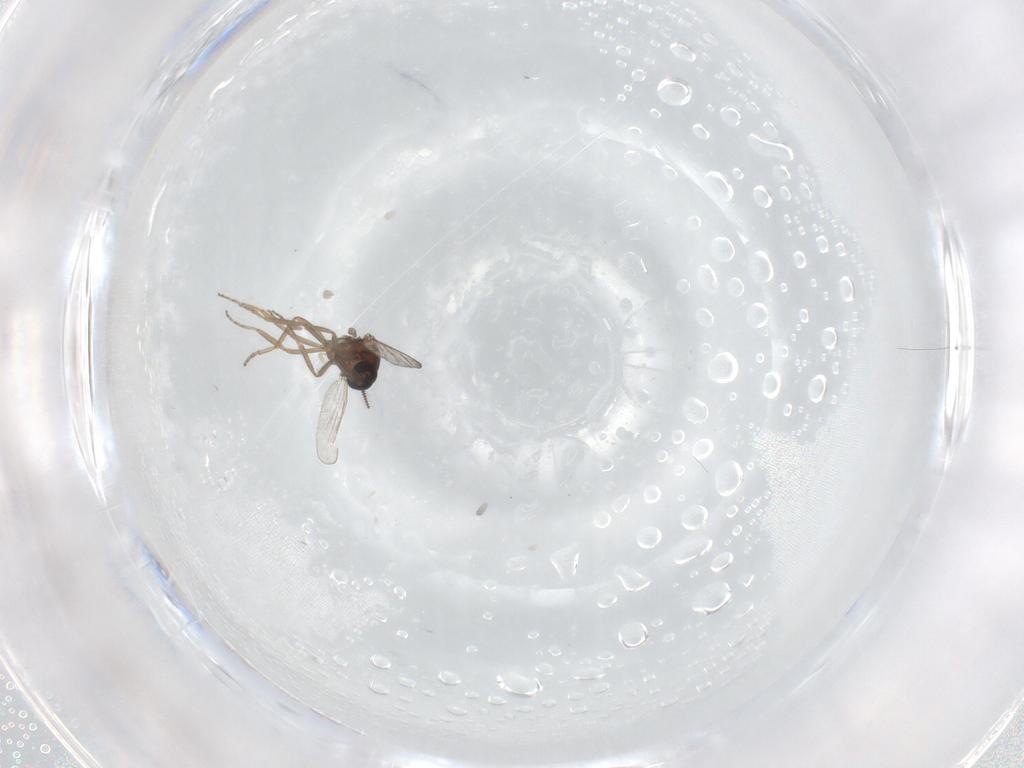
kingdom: Animalia
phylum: Arthropoda
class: Insecta
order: Diptera
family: Ceratopogonidae
